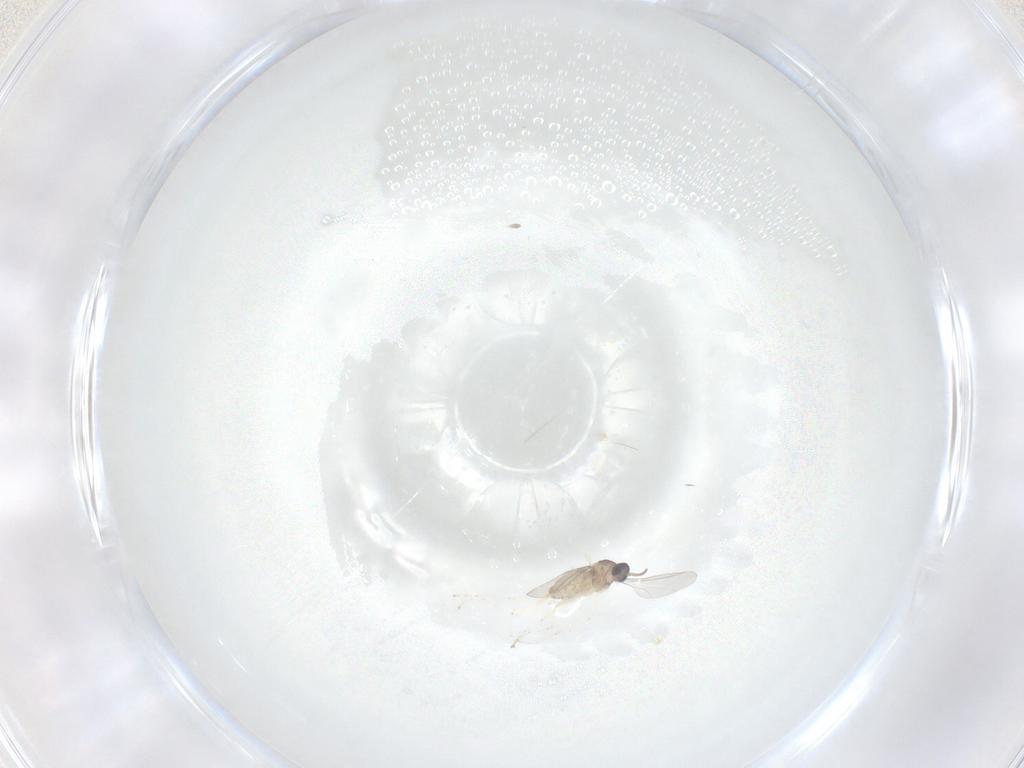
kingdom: Animalia
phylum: Arthropoda
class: Insecta
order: Diptera
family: Cecidomyiidae
